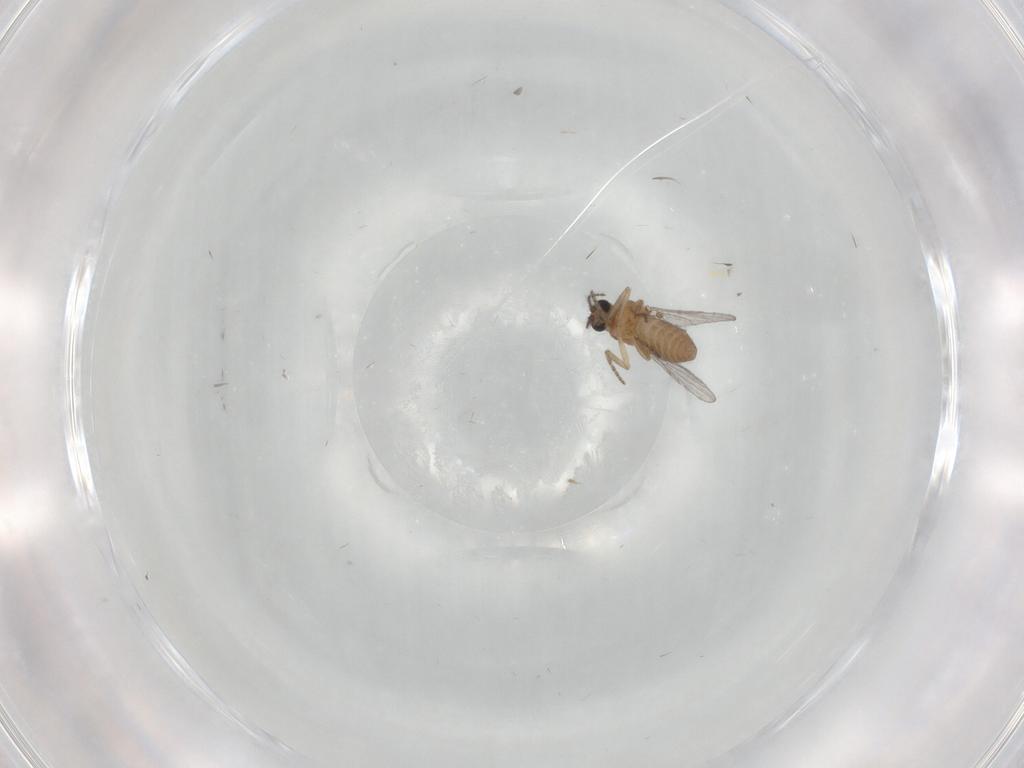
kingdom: Animalia
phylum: Arthropoda
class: Insecta
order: Diptera
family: Ceratopogonidae
